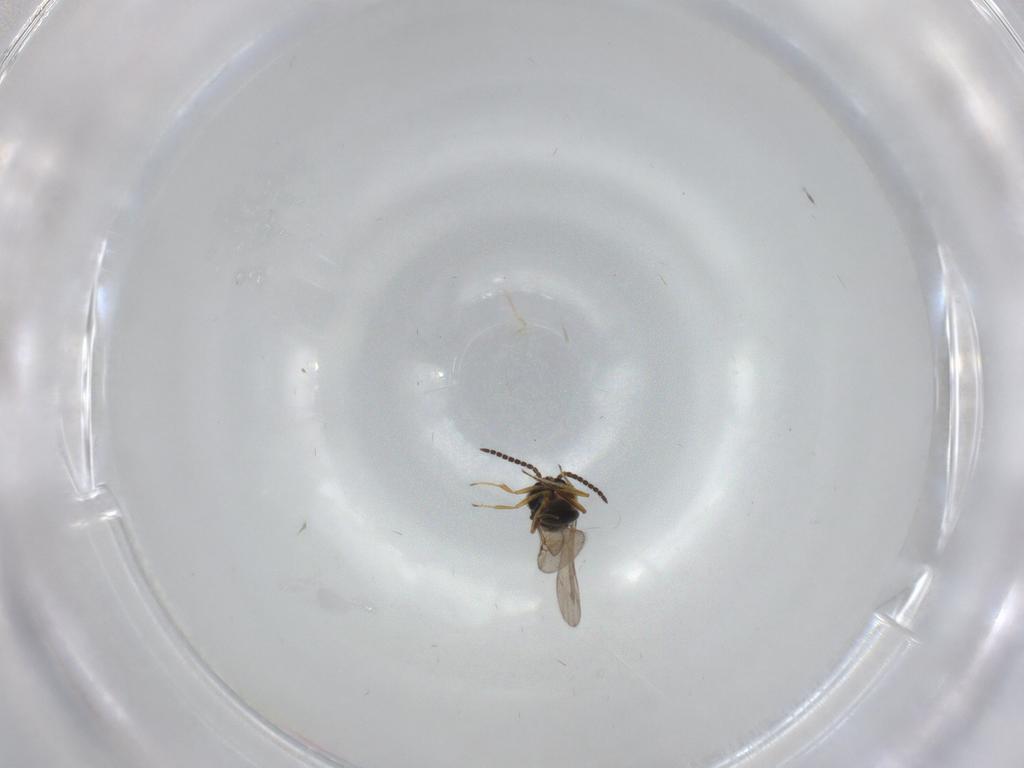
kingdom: Animalia
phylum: Arthropoda
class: Insecta
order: Hymenoptera
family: Scelionidae
